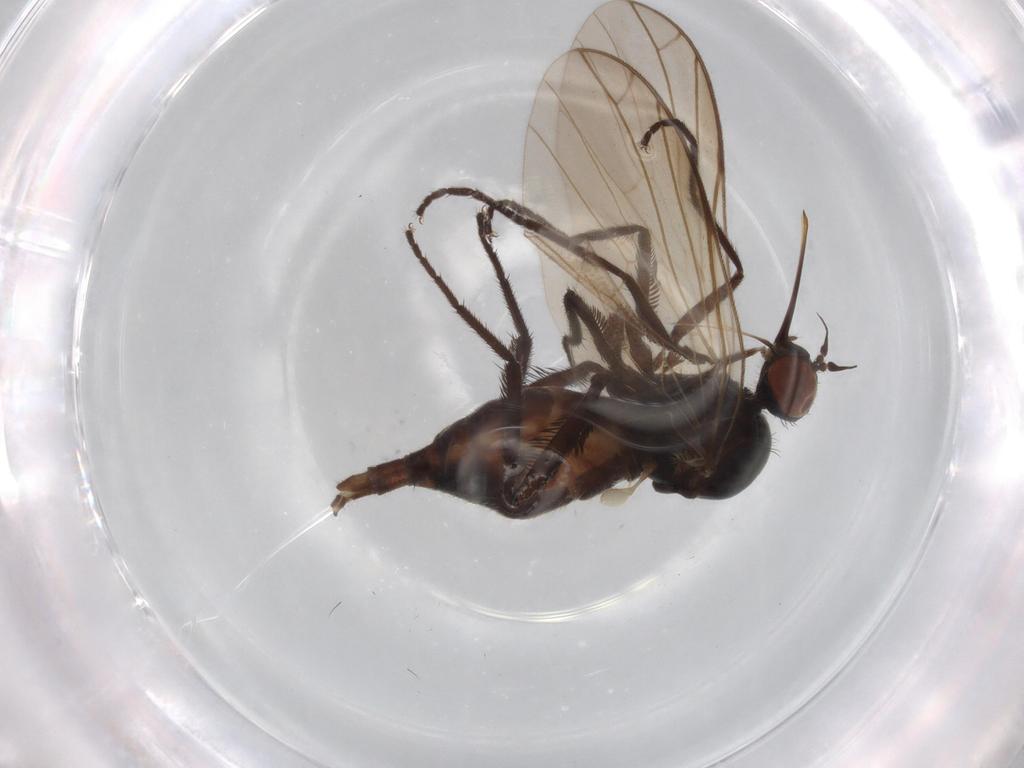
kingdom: Animalia
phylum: Arthropoda
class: Insecta
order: Diptera
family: Empididae
